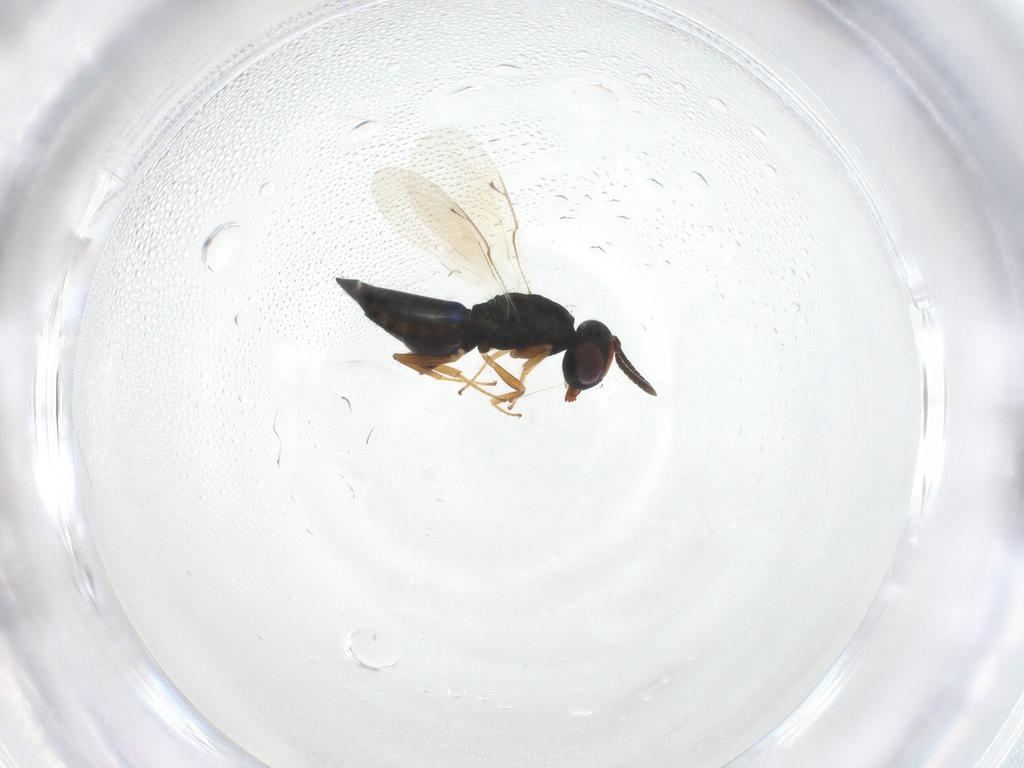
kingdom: Animalia
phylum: Arthropoda
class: Insecta
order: Hymenoptera
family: Pteromalidae
